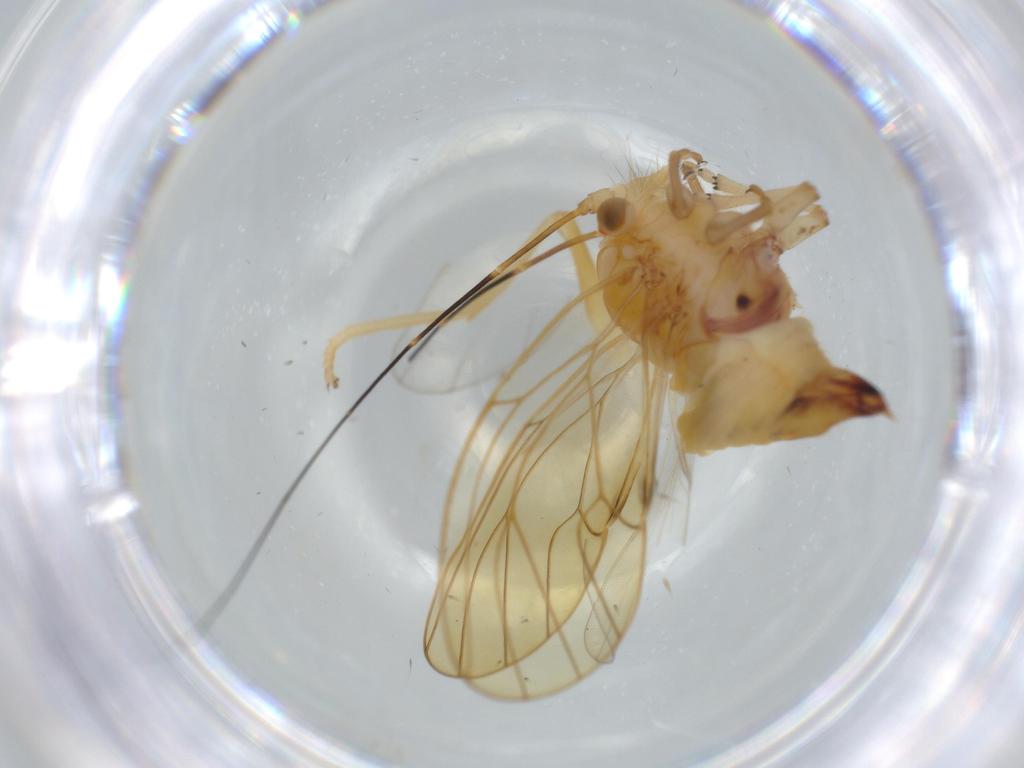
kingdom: Animalia
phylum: Arthropoda
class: Insecta
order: Hemiptera
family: Psyllidae
